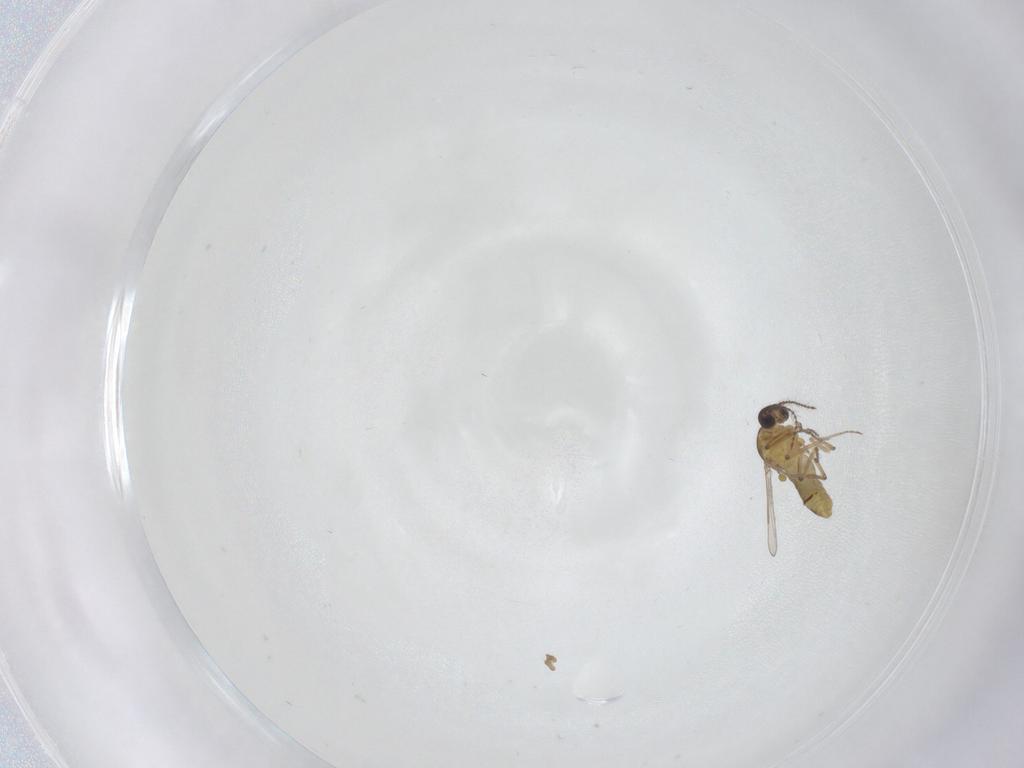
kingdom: Animalia
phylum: Arthropoda
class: Insecta
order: Diptera
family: Ceratopogonidae
